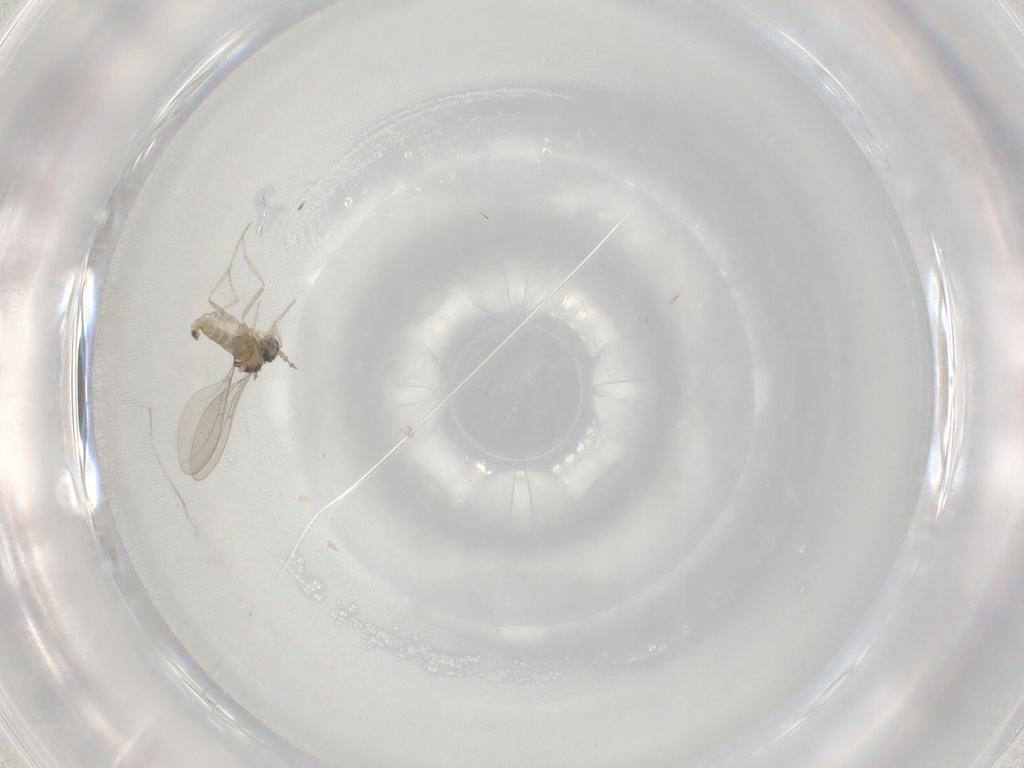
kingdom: Animalia
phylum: Arthropoda
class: Insecta
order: Diptera
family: Cecidomyiidae
